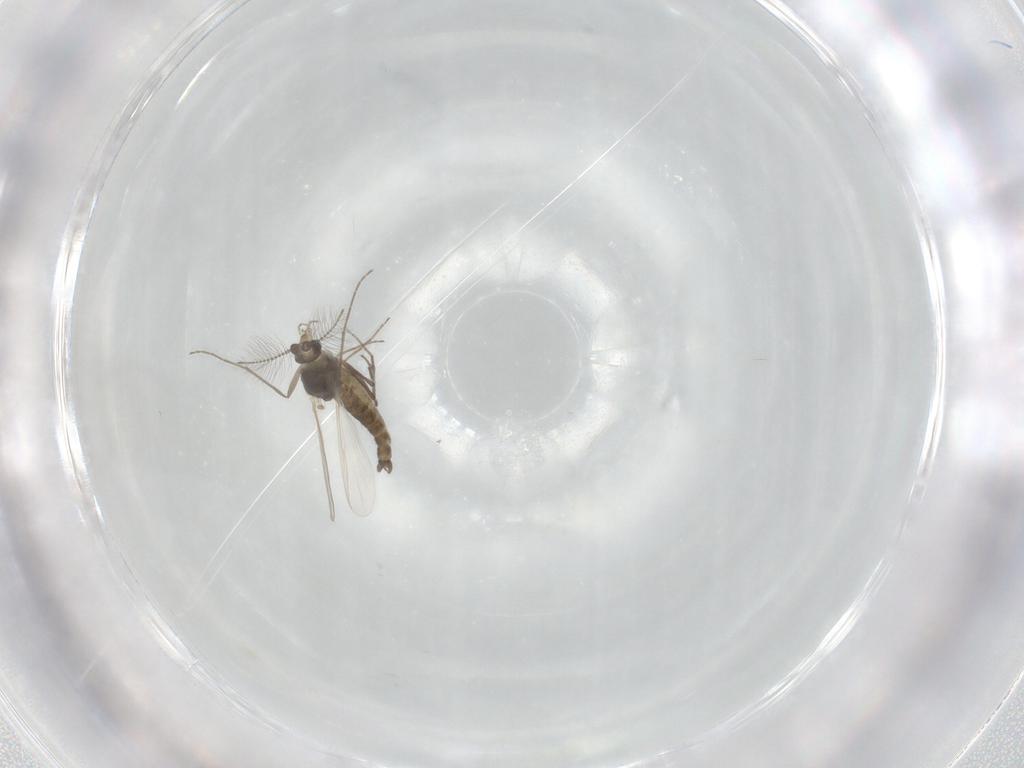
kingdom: Animalia
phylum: Arthropoda
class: Insecta
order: Diptera
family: Chironomidae
